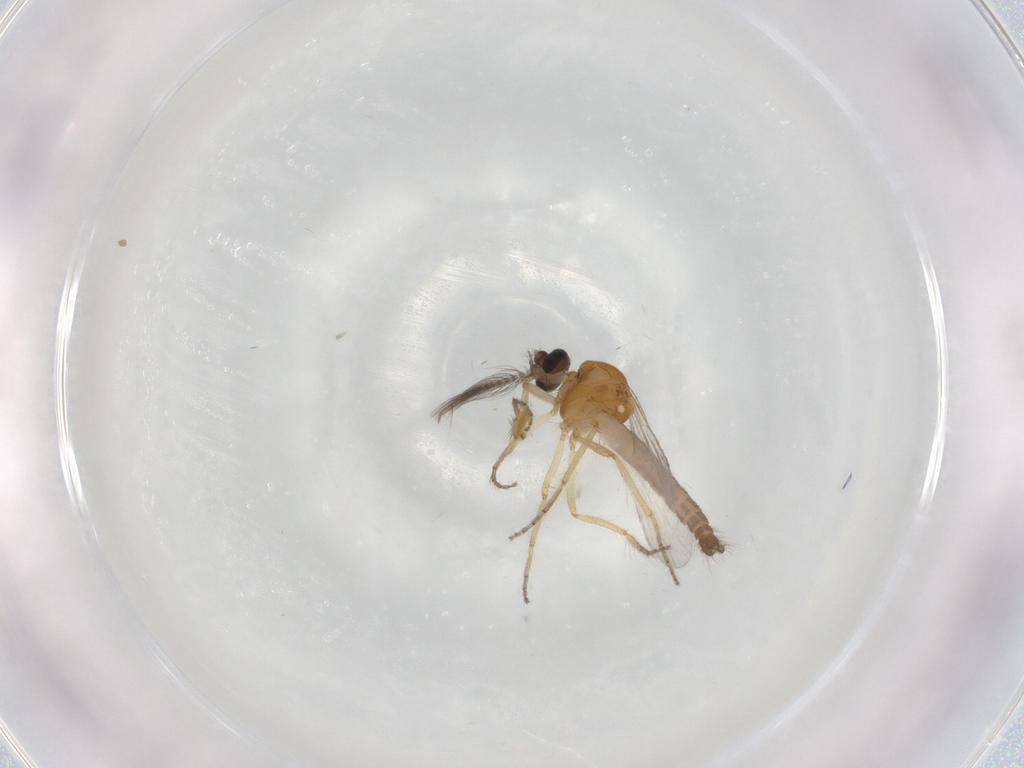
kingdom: Animalia
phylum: Arthropoda
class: Insecta
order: Diptera
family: Ceratopogonidae
